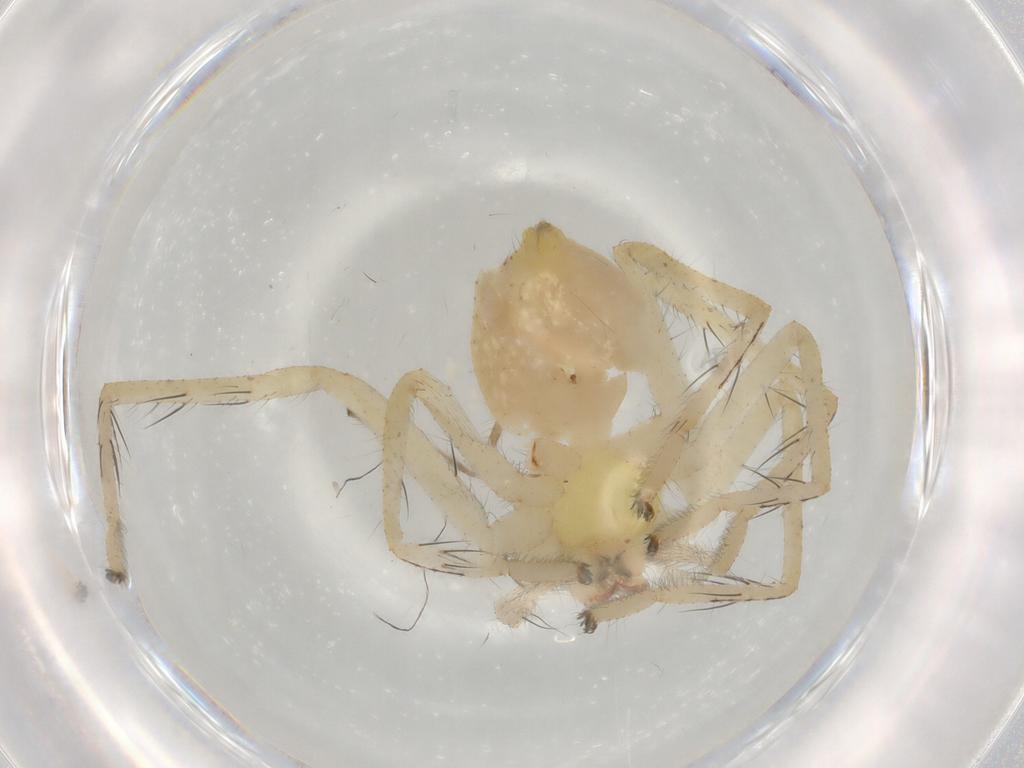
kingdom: Animalia
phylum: Arthropoda
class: Arachnida
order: Araneae
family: Sparassidae
